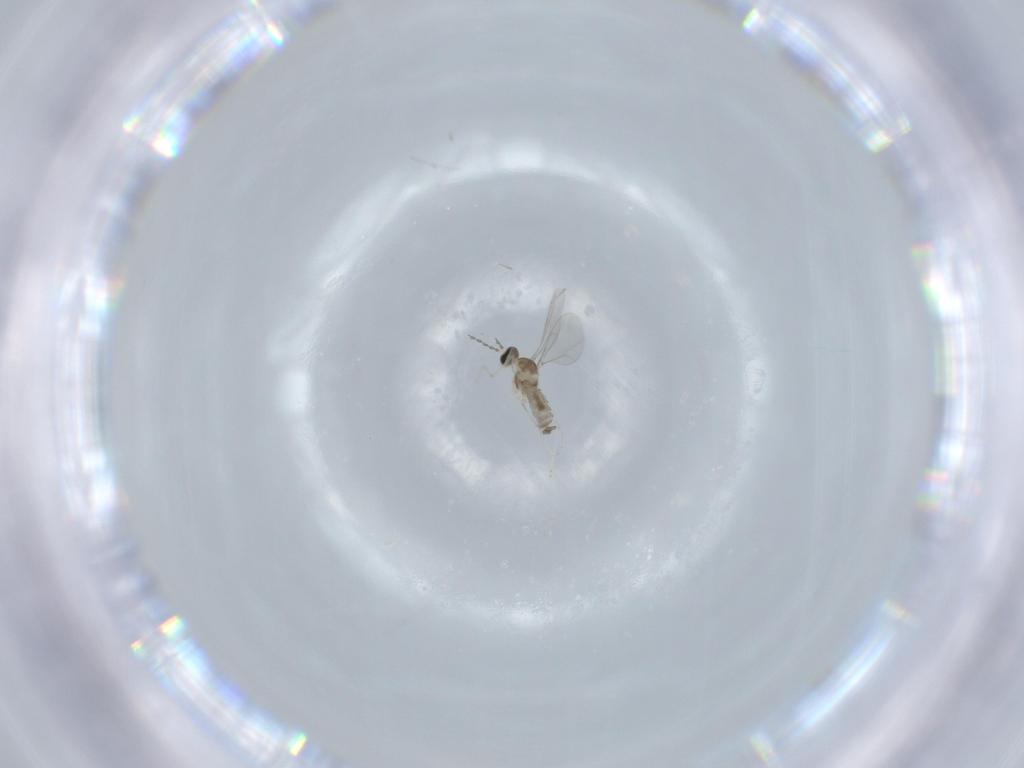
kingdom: Animalia
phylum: Arthropoda
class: Insecta
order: Diptera
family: Cecidomyiidae
